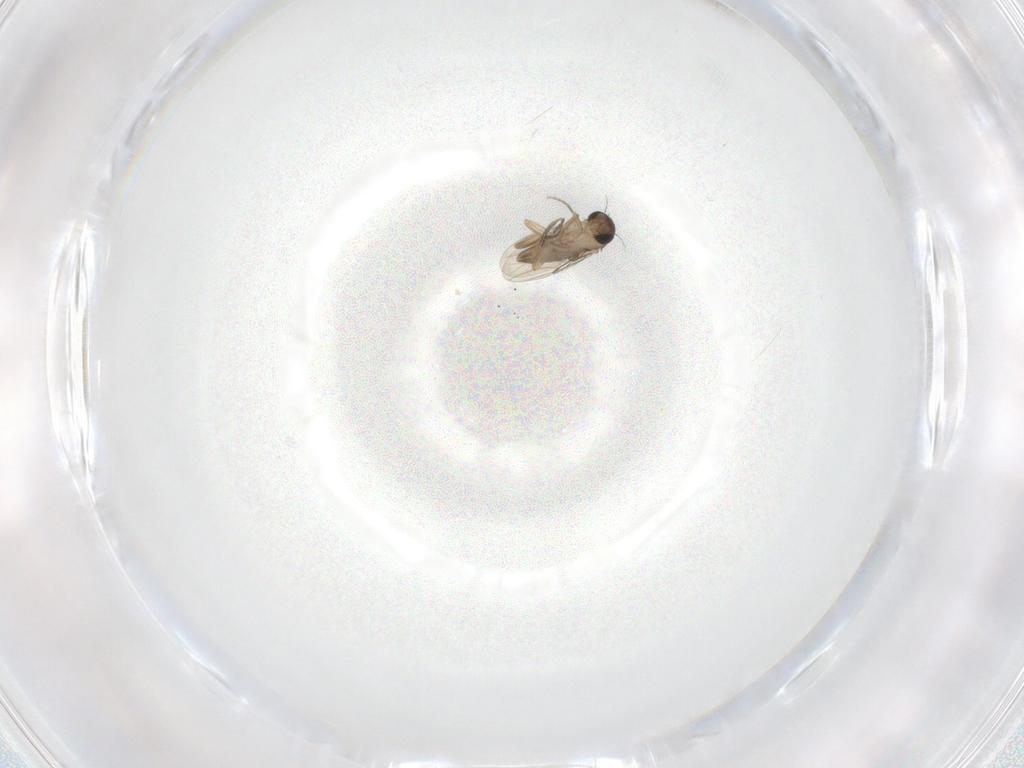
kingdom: Animalia
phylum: Arthropoda
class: Insecta
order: Diptera
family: Phoridae
